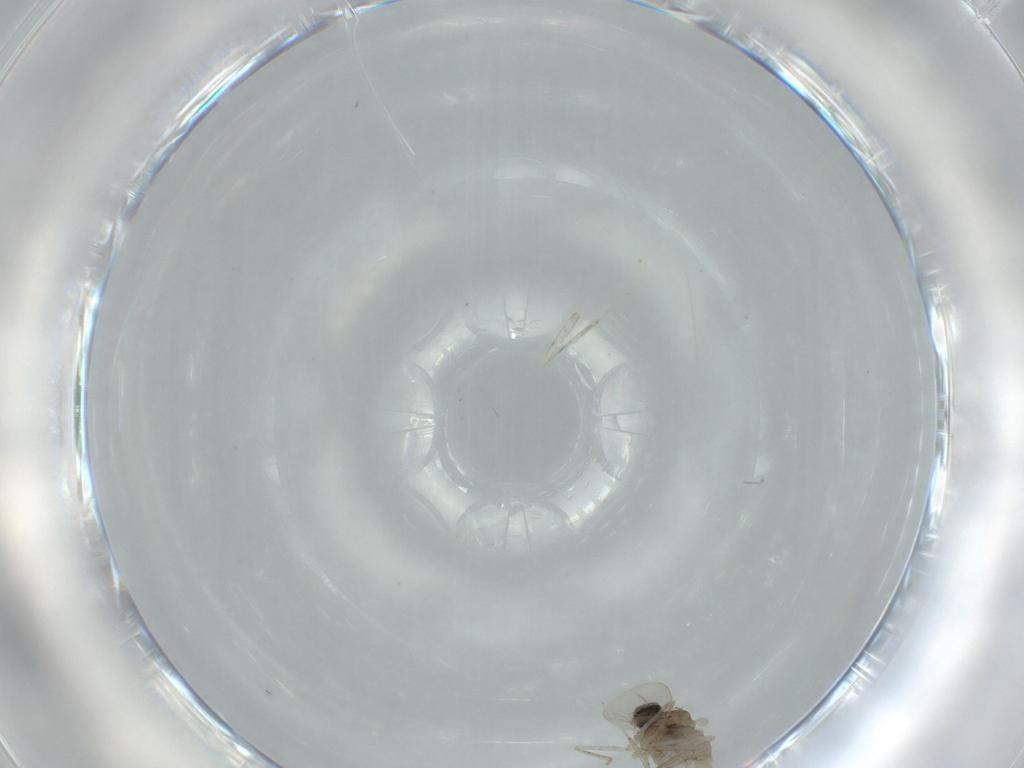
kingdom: Animalia
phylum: Arthropoda
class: Insecta
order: Diptera
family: Cecidomyiidae
